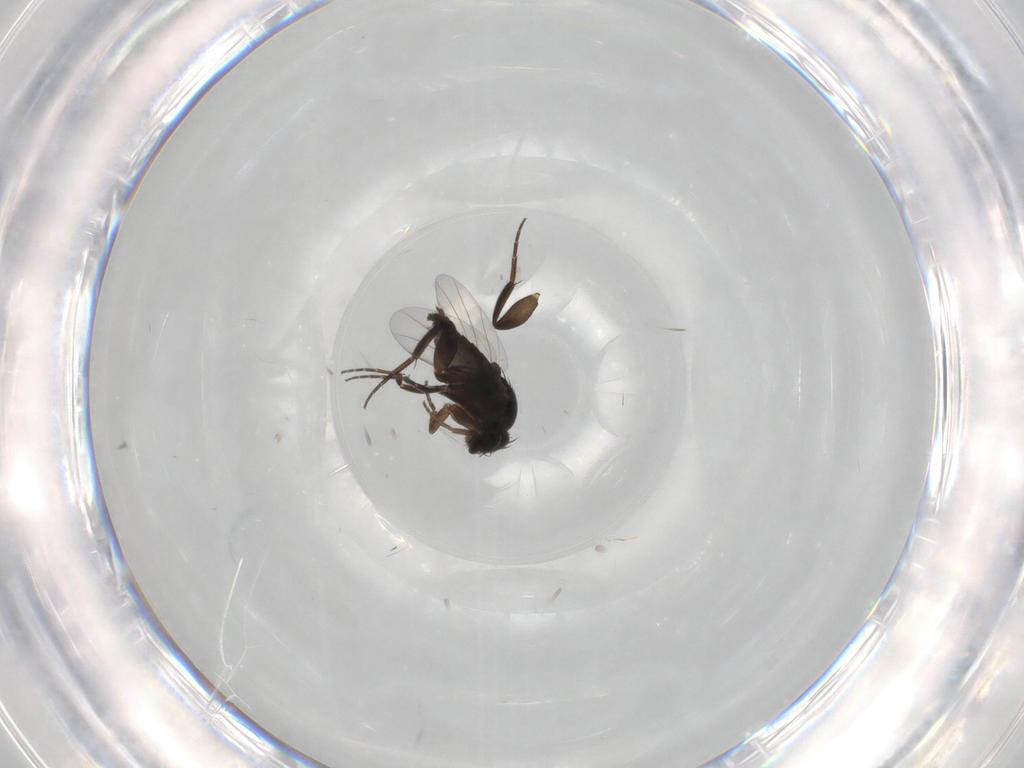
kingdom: Animalia
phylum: Arthropoda
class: Insecta
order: Diptera
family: Phoridae
